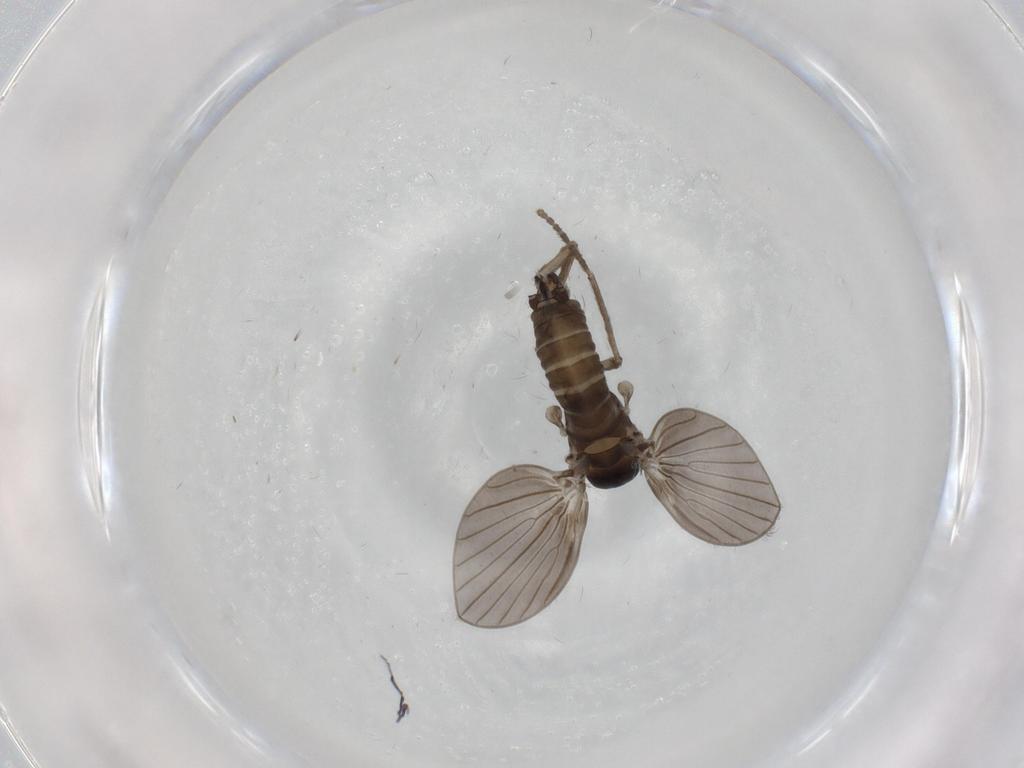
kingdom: Animalia
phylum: Arthropoda
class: Insecta
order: Diptera
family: Psychodidae
